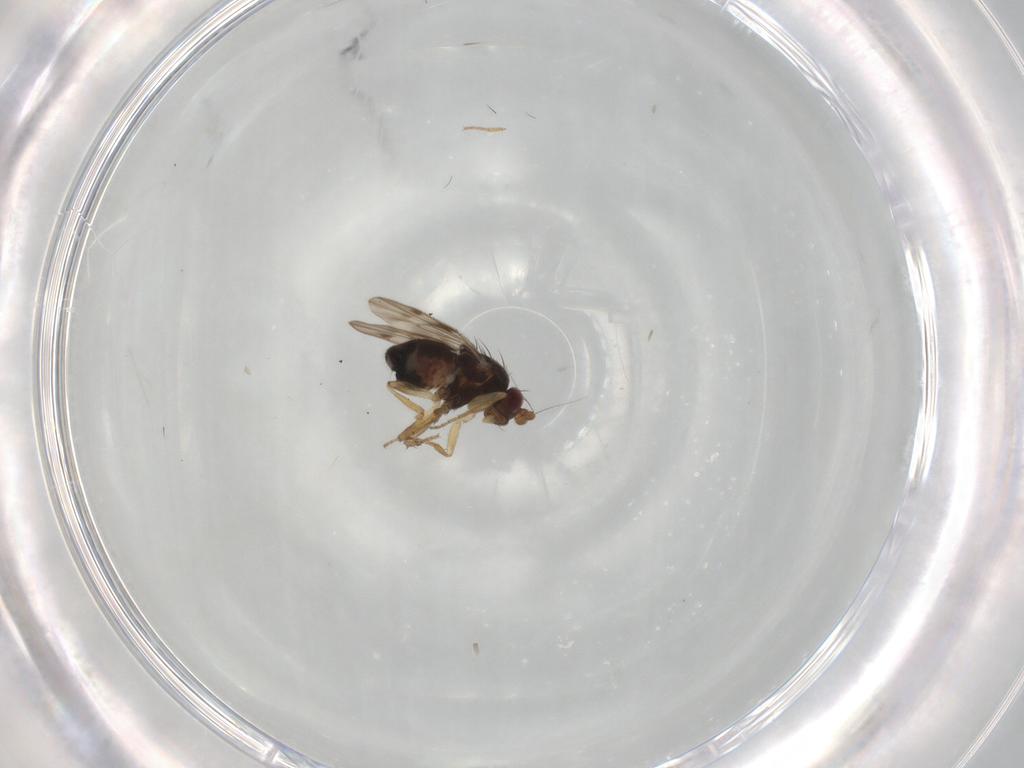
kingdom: Animalia
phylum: Arthropoda
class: Insecta
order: Diptera
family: Sphaeroceridae
